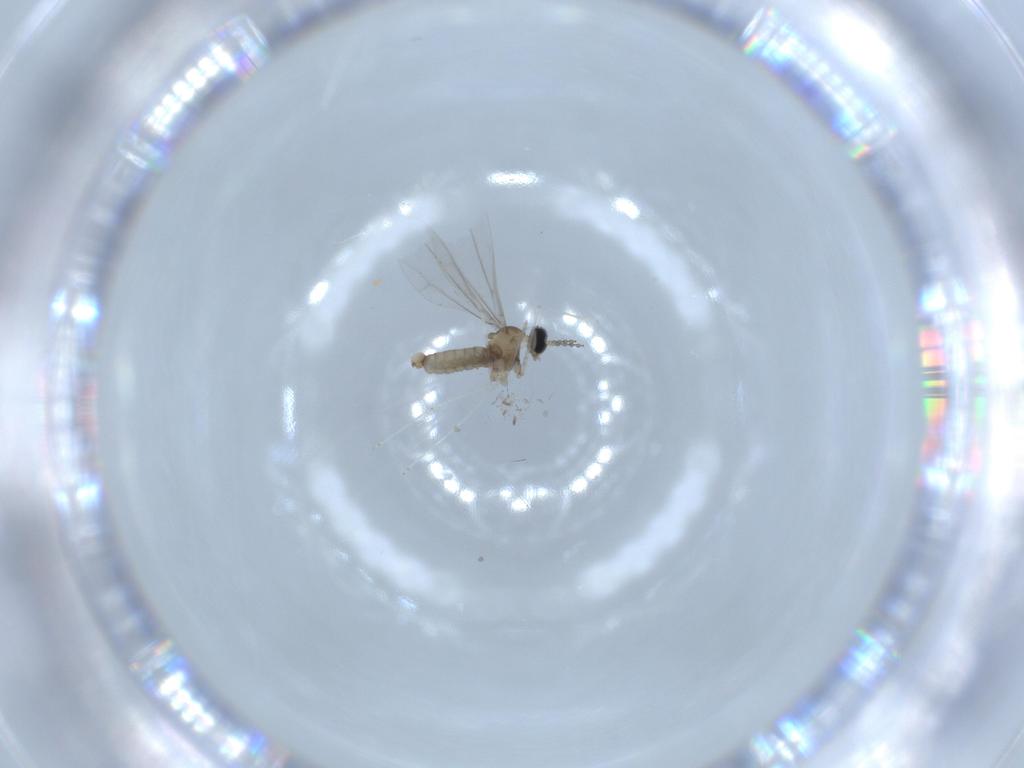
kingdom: Animalia
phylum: Arthropoda
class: Insecta
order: Diptera
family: Cecidomyiidae
